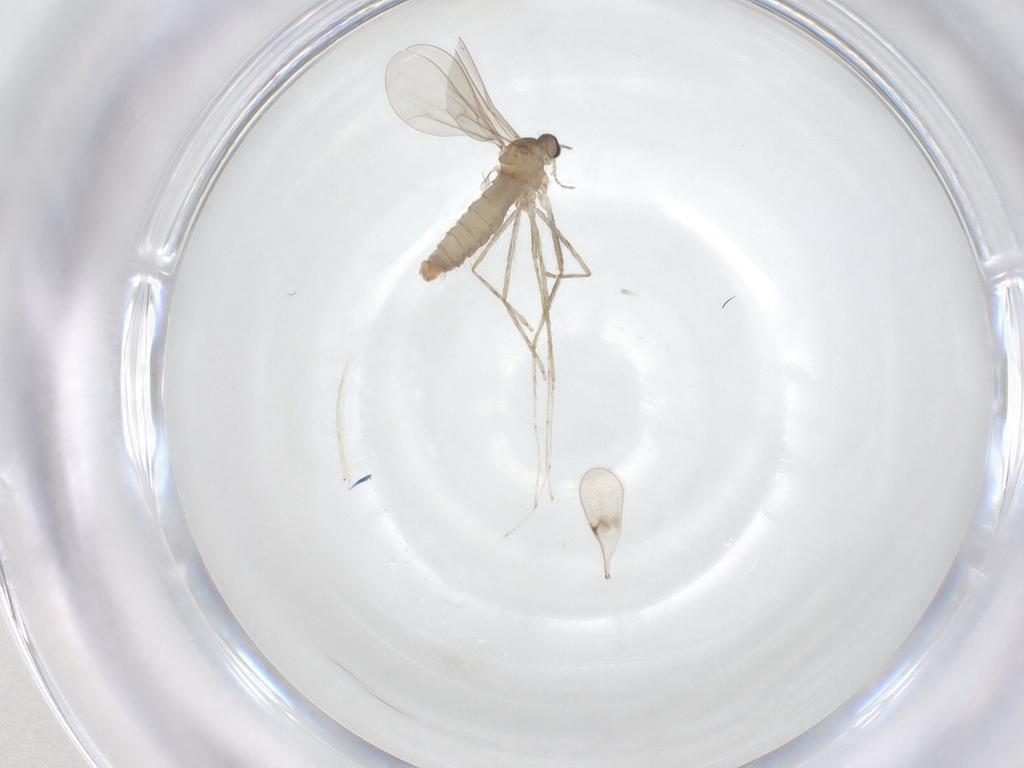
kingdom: Animalia
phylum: Arthropoda
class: Insecta
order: Diptera
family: Cecidomyiidae
